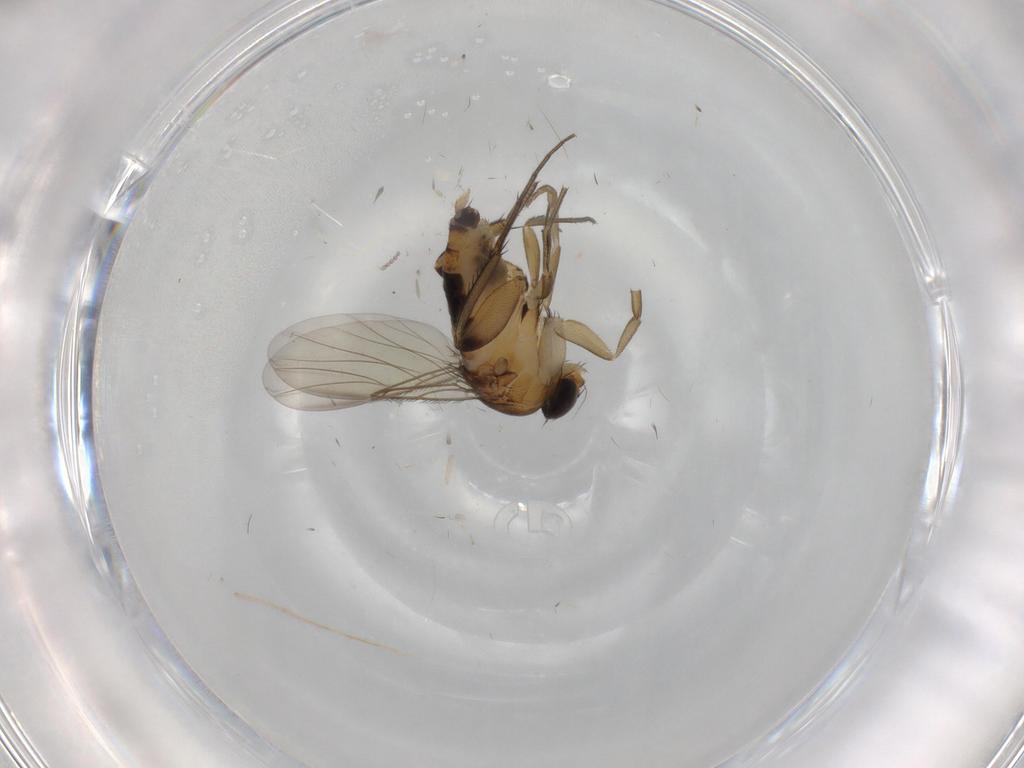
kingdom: Animalia
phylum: Arthropoda
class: Insecta
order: Diptera
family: Phoridae
